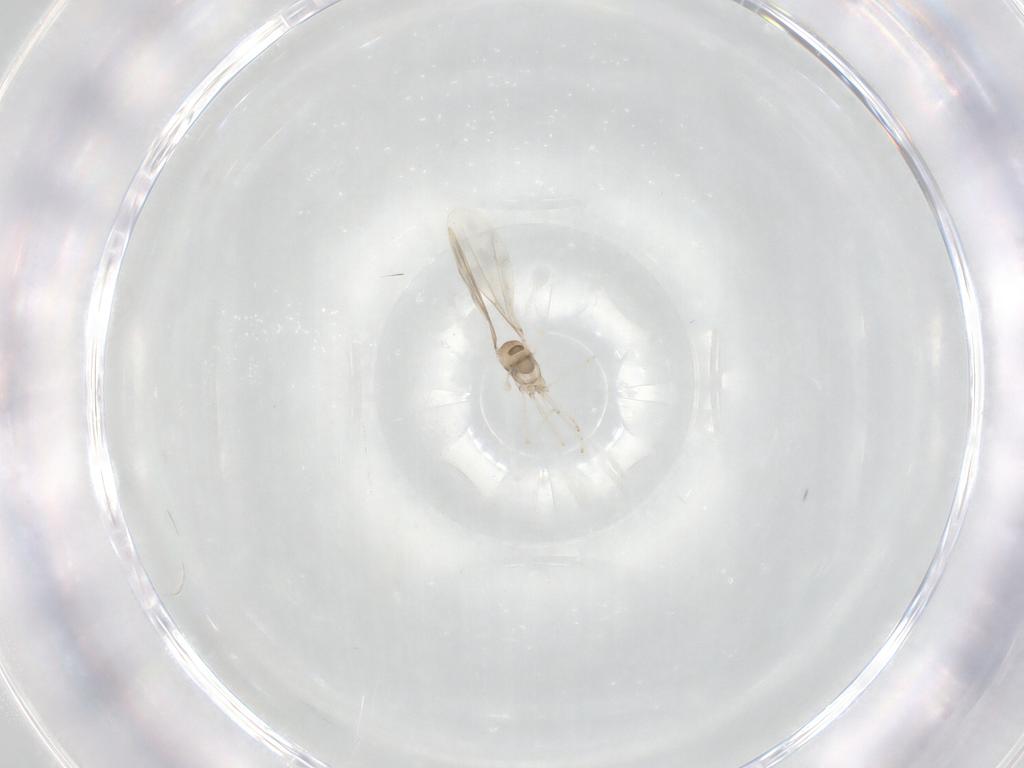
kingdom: Animalia
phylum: Arthropoda
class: Insecta
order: Diptera
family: Cecidomyiidae
